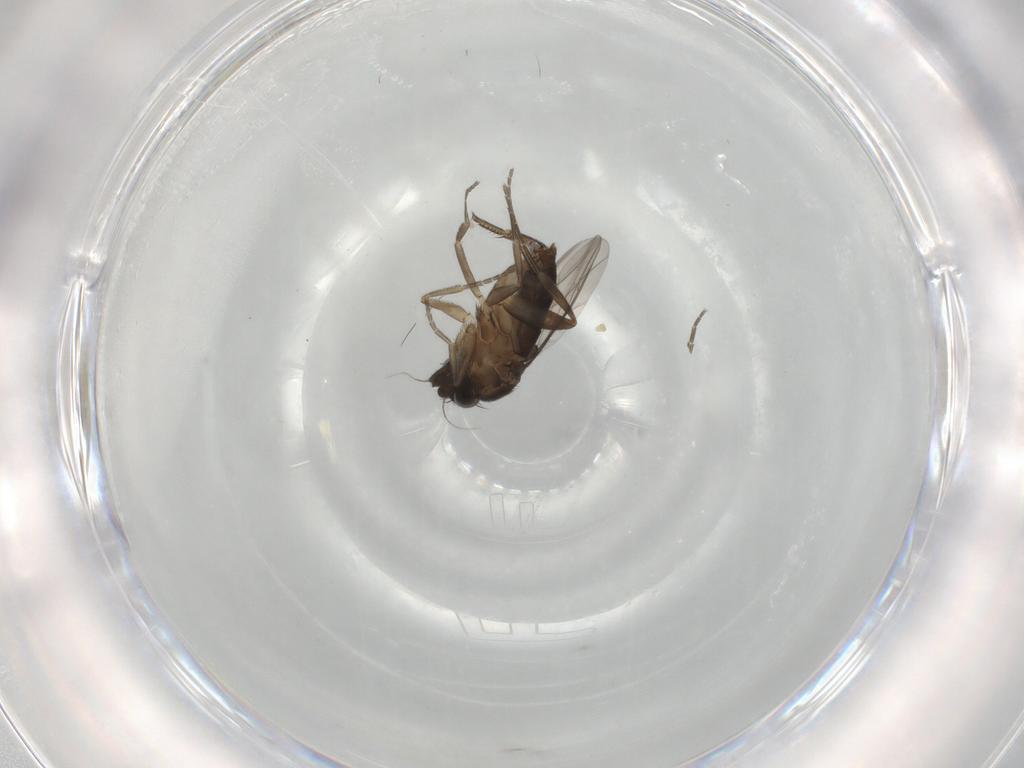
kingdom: Animalia
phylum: Arthropoda
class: Insecta
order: Diptera
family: Phoridae
